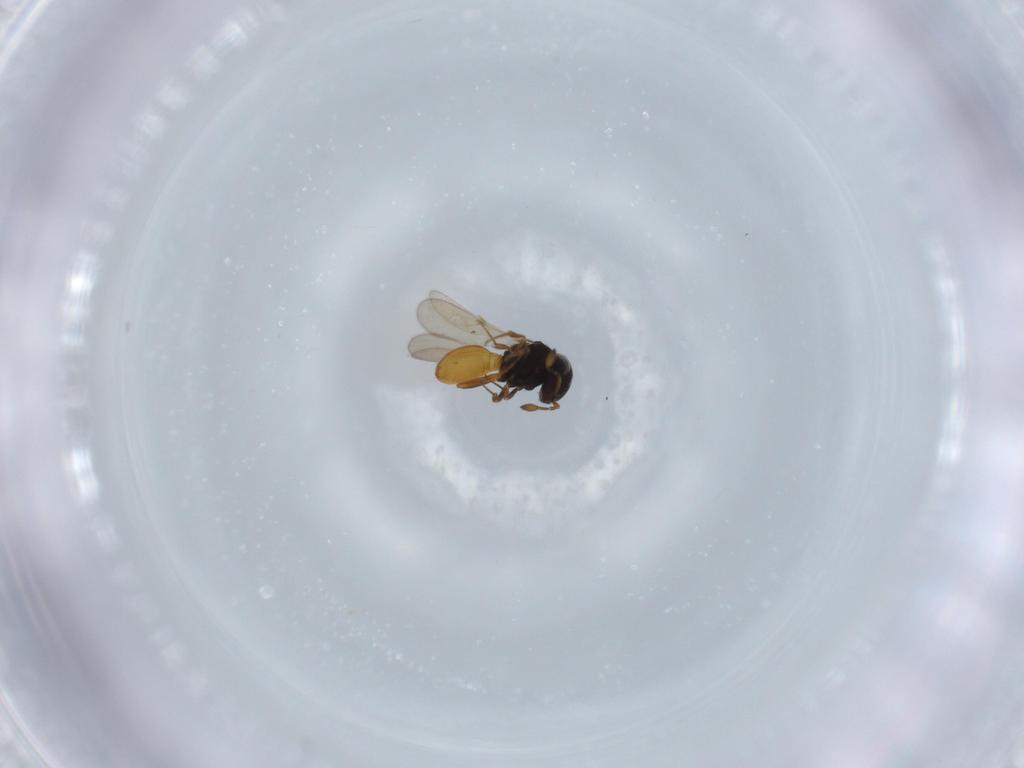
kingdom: Animalia
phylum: Arthropoda
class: Insecta
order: Hymenoptera
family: Scelionidae
